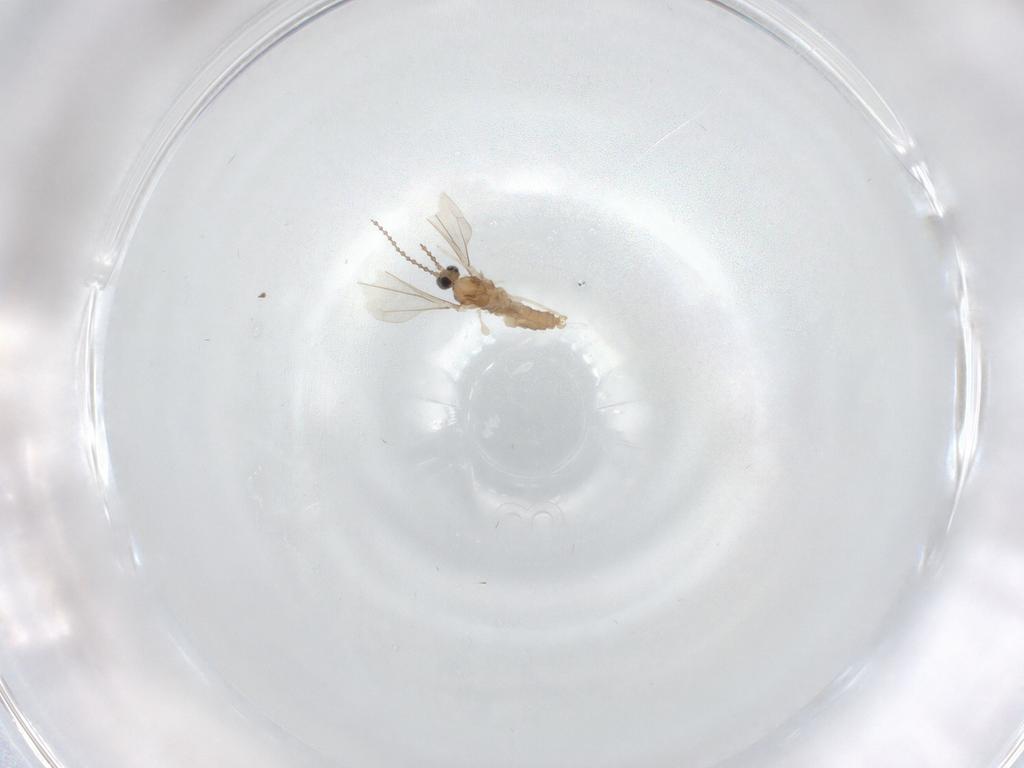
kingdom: Animalia
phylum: Arthropoda
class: Insecta
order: Diptera
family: Cecidomyiidae
